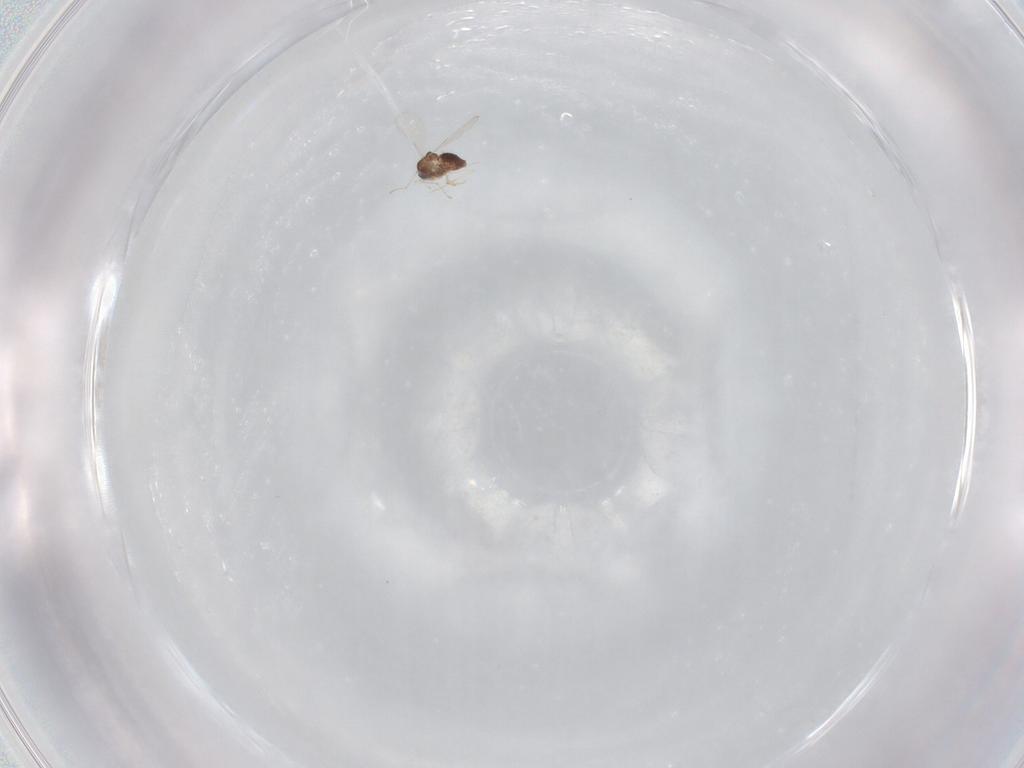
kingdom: Animalia
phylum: Arthropoda
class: Insecta
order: Diptera
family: Chironomidae
